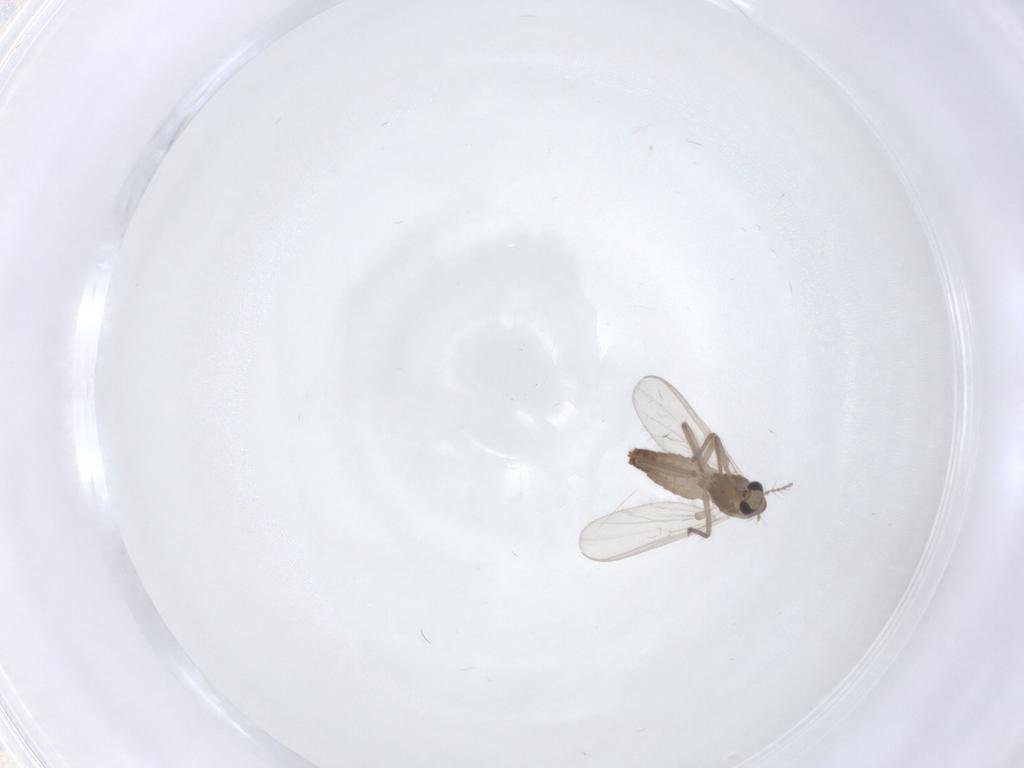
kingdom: Animalia
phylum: Arthropoda
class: Insecta
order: Diptera
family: Chironomidae
